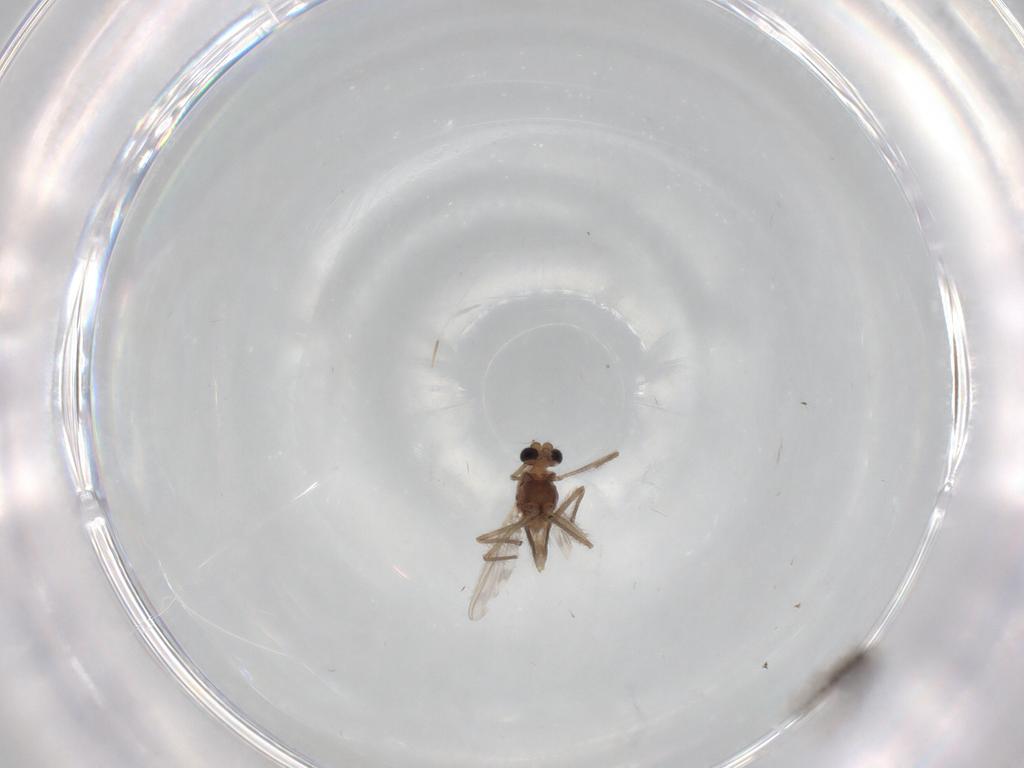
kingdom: Animalia
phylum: Arthropoda
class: Insecta
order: Diptera
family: Chironomidae
